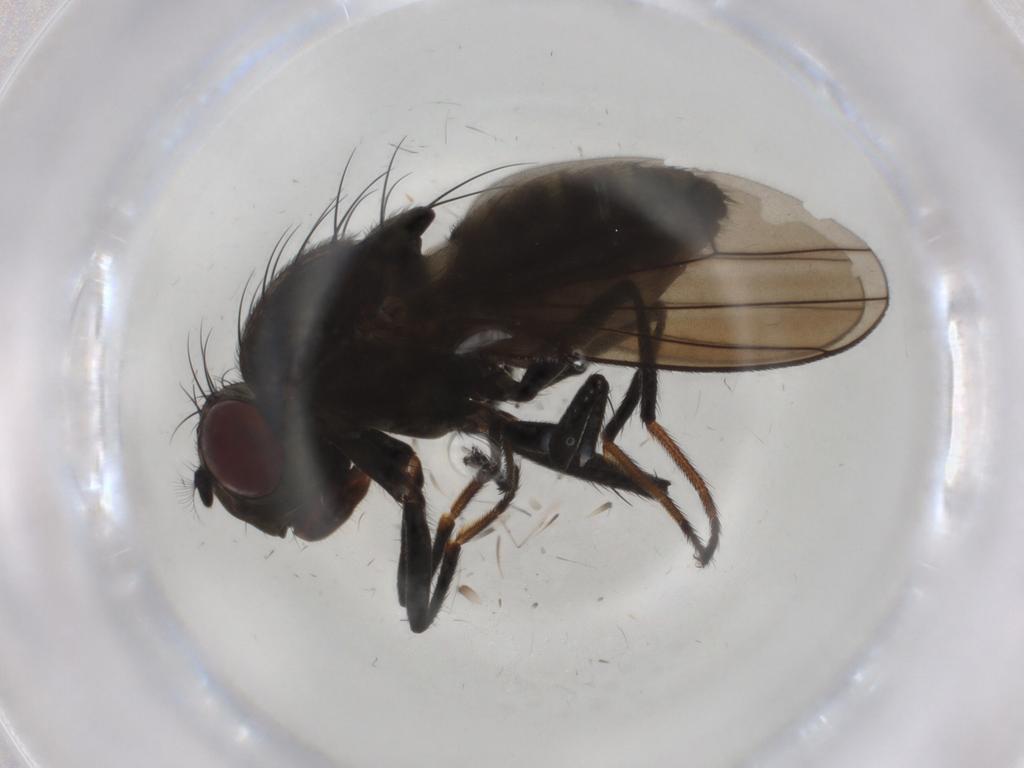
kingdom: Animalia
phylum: Arthropoda
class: Insecta
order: Diptera
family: Ephydridae
